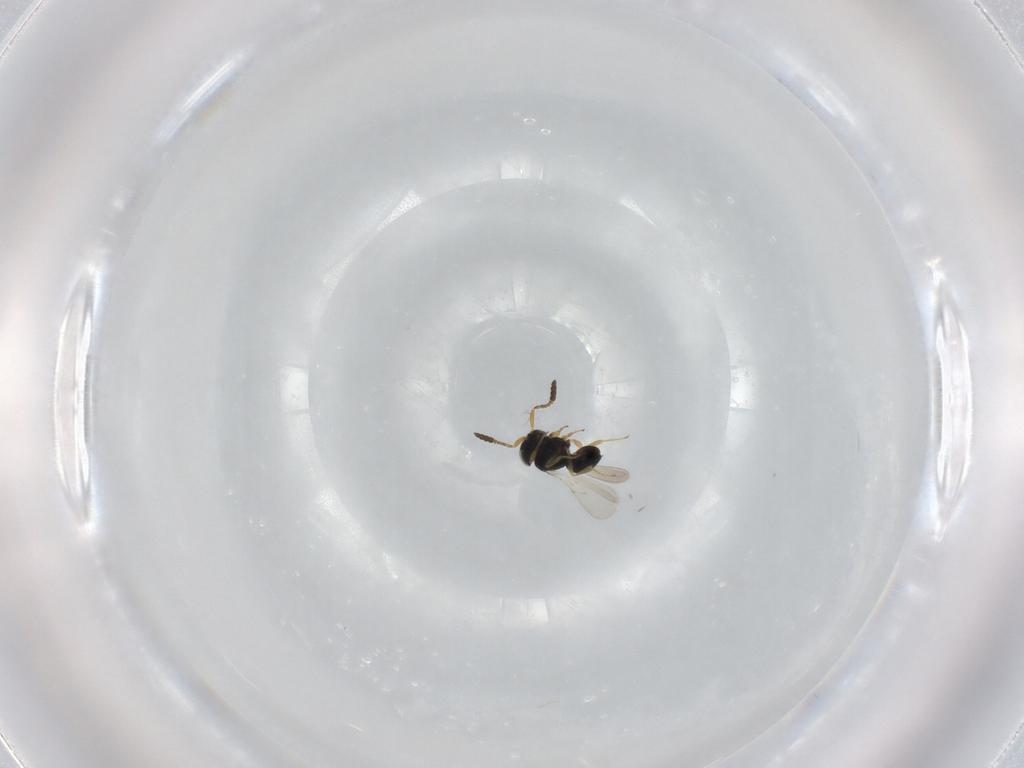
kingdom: Animalia
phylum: Arthropoda
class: Insecta
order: Hymenoptera
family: Scelionidae
